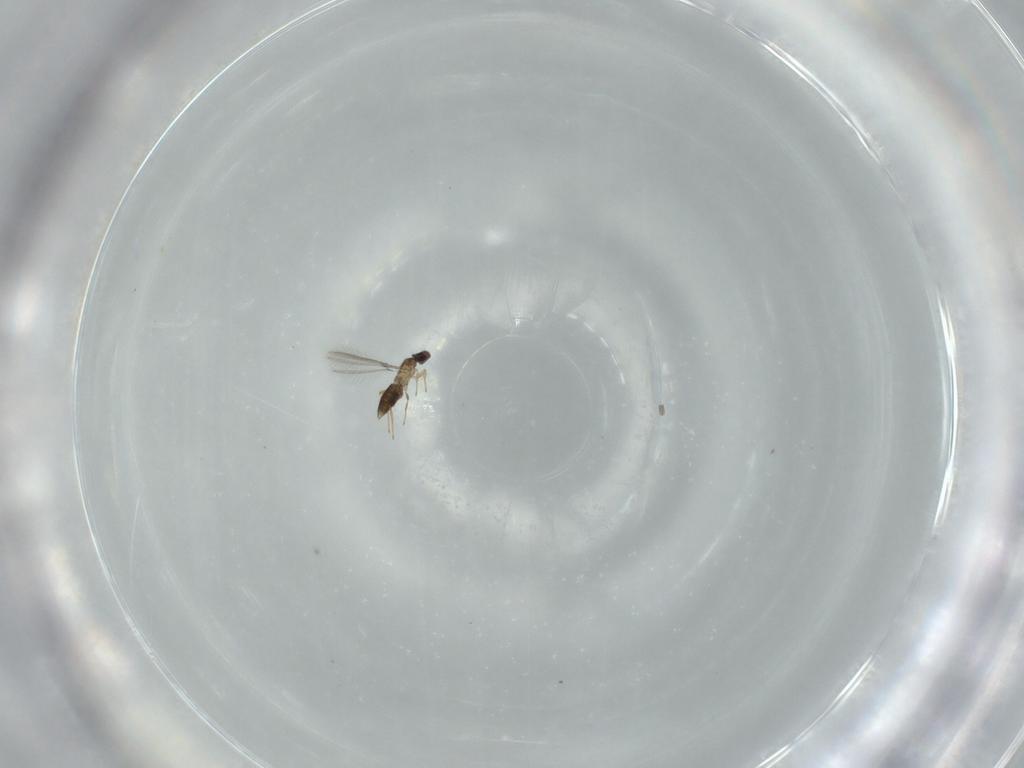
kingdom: Animalia
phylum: Arthropoda
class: Insecta
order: Hymenoptera
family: Mymaridae
